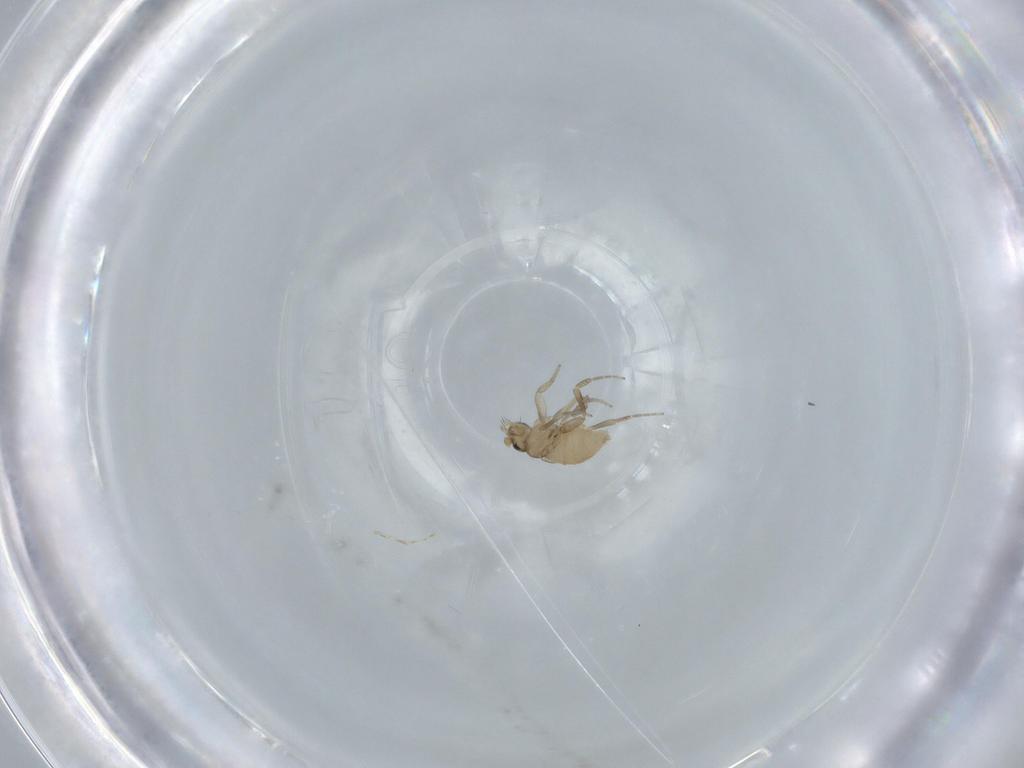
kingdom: Animalia
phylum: Arthropoda
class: Insecta
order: Diptera
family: Phoridae
